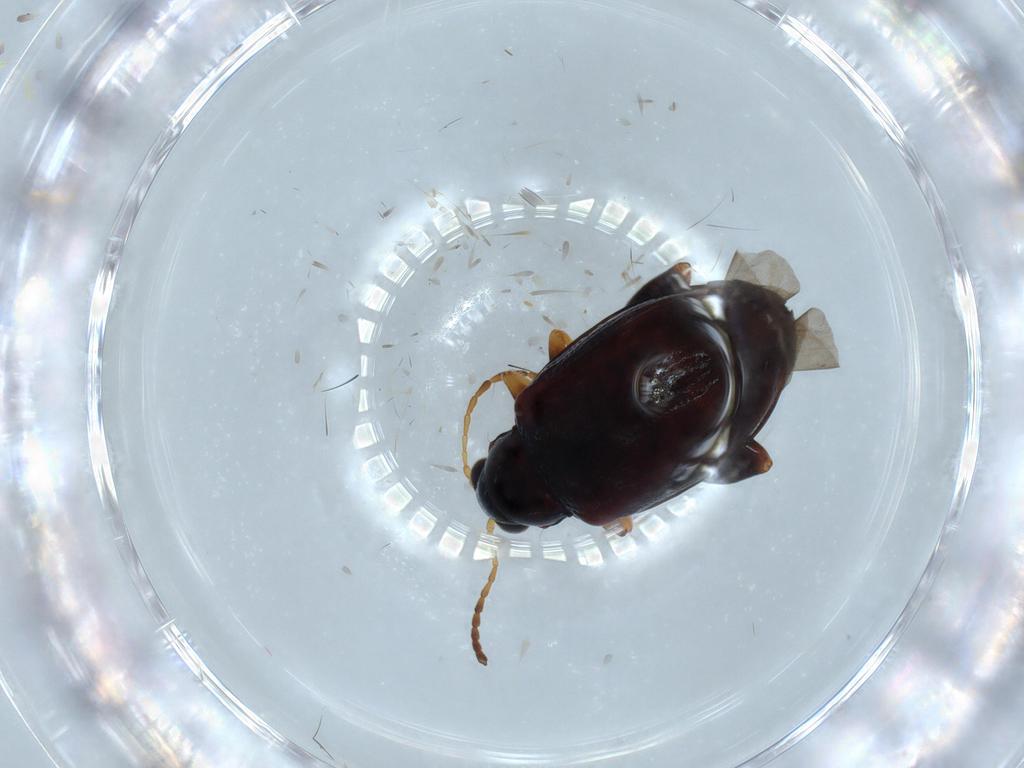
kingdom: Animalia
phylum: Arthropoda
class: Insecta
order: Coleoptera
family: Chrysomelidae
